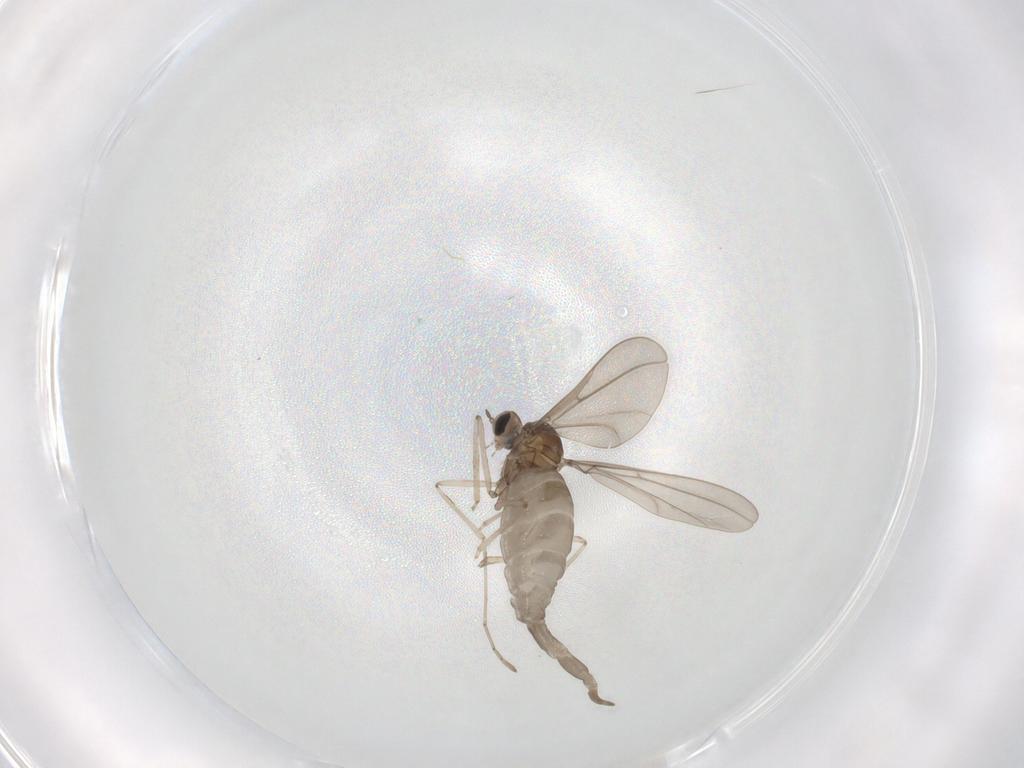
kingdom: Animalia
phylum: Arthropoda
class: Insecta
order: Diptera
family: Cecidomyiidae
